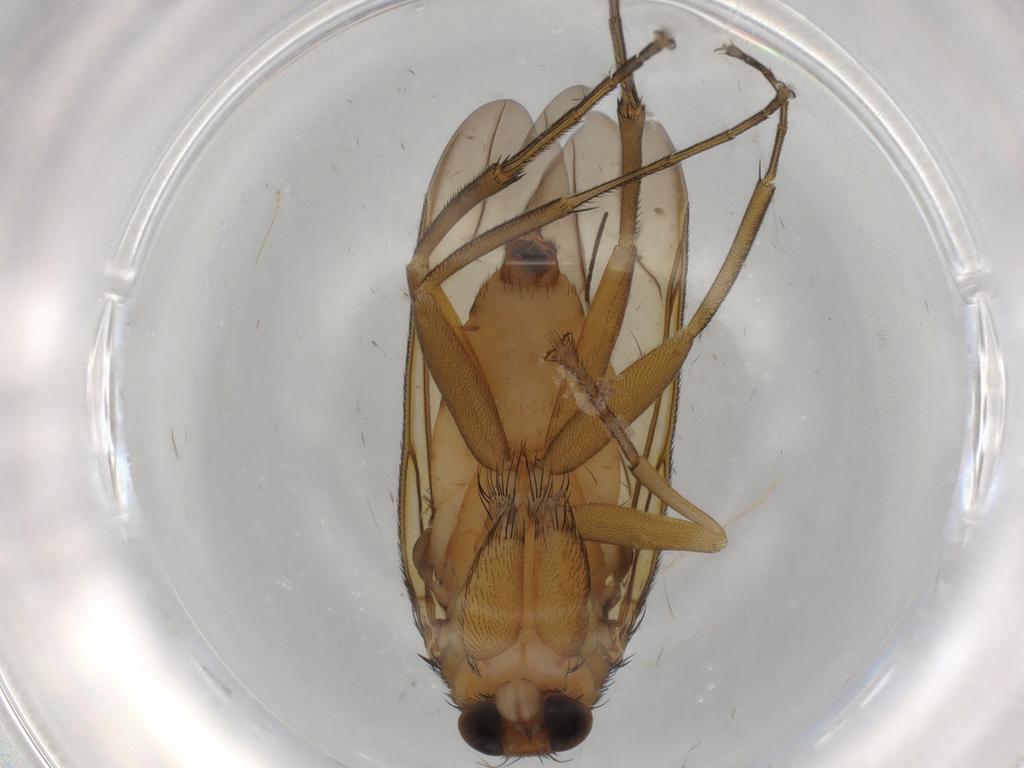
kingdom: Animalia
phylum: Arthropoda
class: Insecta
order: Diptera
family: Phoridae
